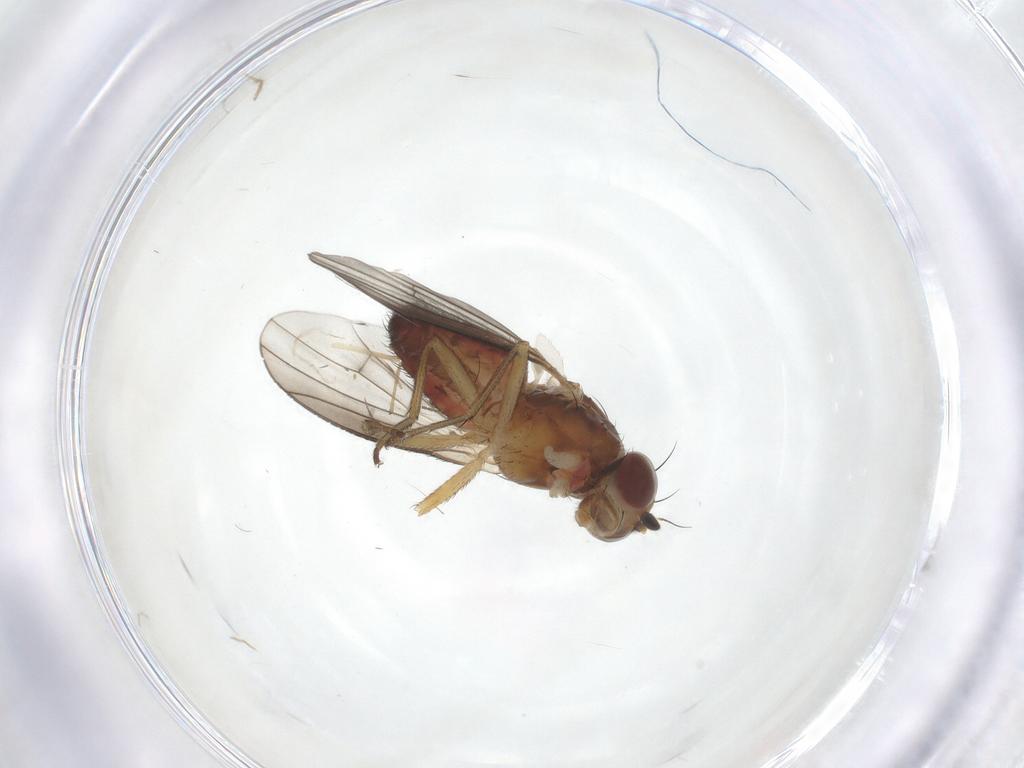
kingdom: Animalia
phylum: Arthropoda
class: Insecta
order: Diptera
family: Heleomyzidae
